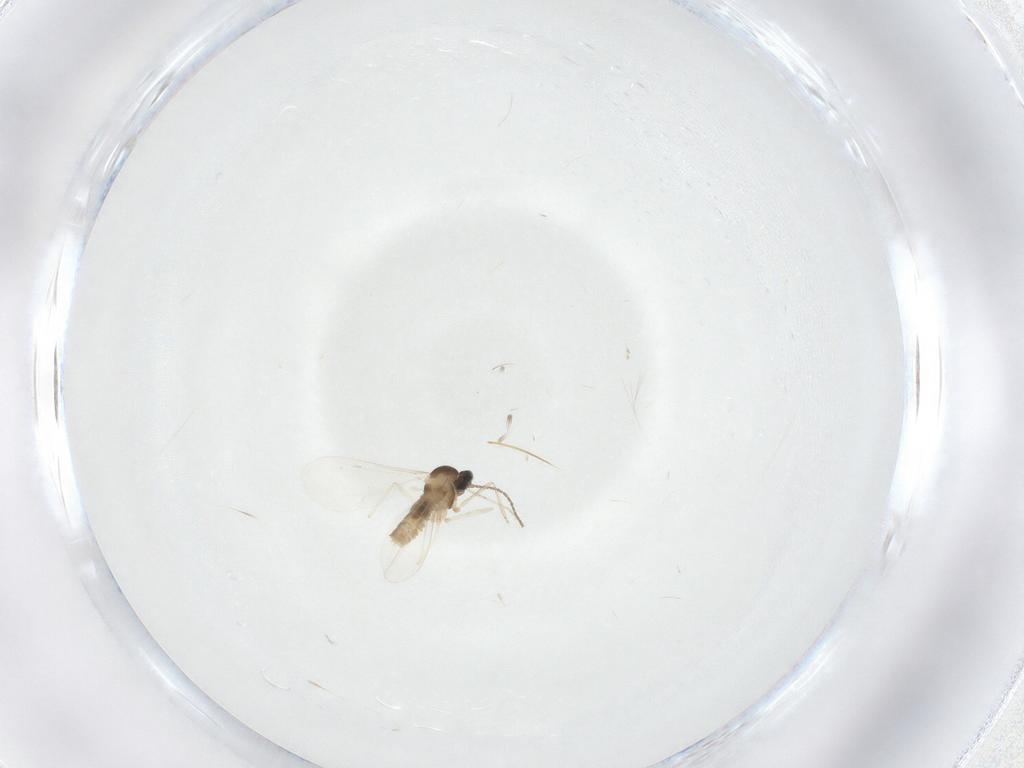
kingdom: Animalia
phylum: Arthropoda
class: Insecta
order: Diptera
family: Cecidomyiidae
